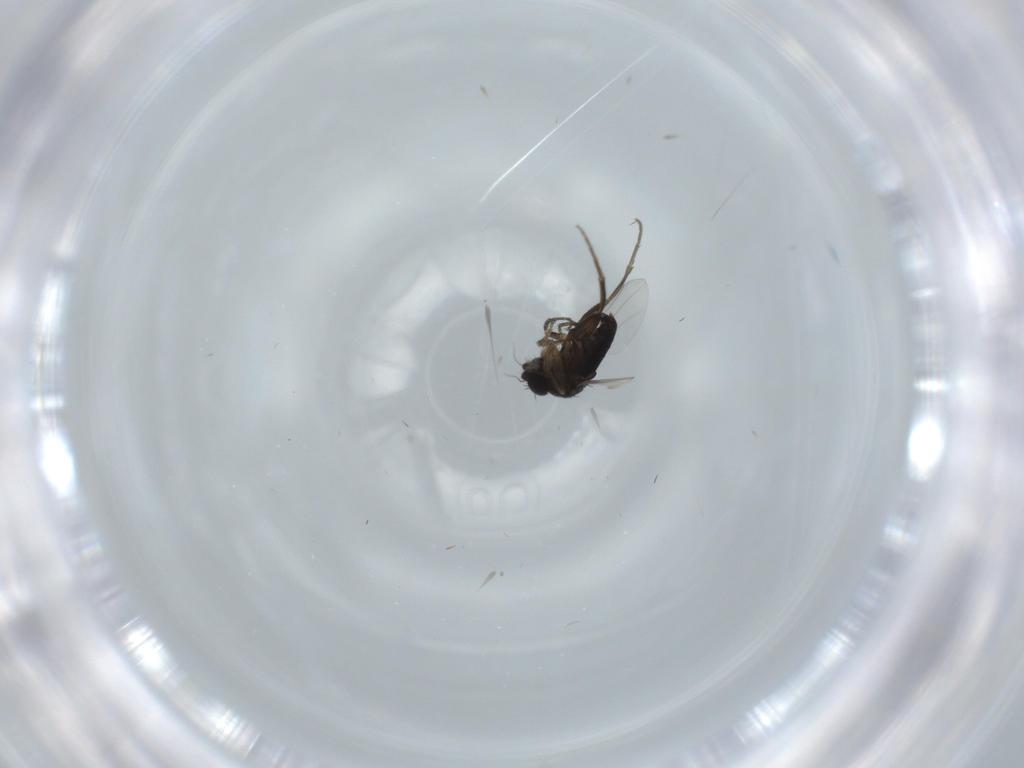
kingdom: Animalia
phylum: Arthropoda
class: Insecta
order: Diptera
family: Phoridae
